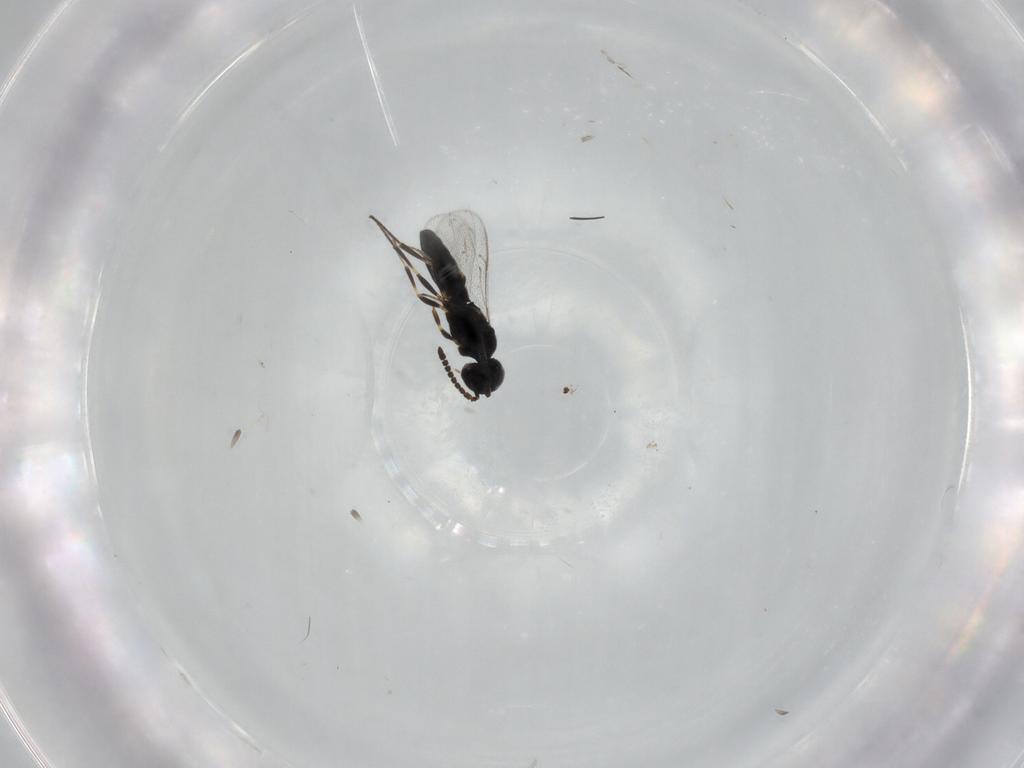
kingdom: Animalia
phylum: Arthropoda
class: Insecta
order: Hymenoptera
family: Scelionidae
